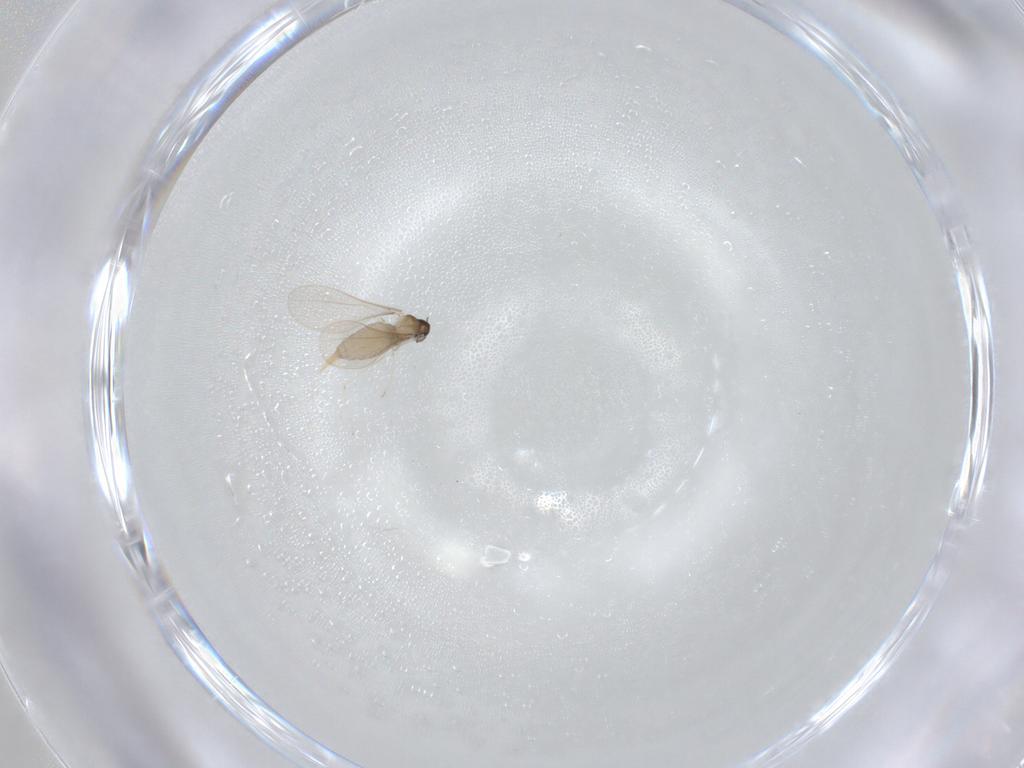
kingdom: Animalia
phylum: Arthropoda
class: Insecta
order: Diptera
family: Cecidomyiidae
